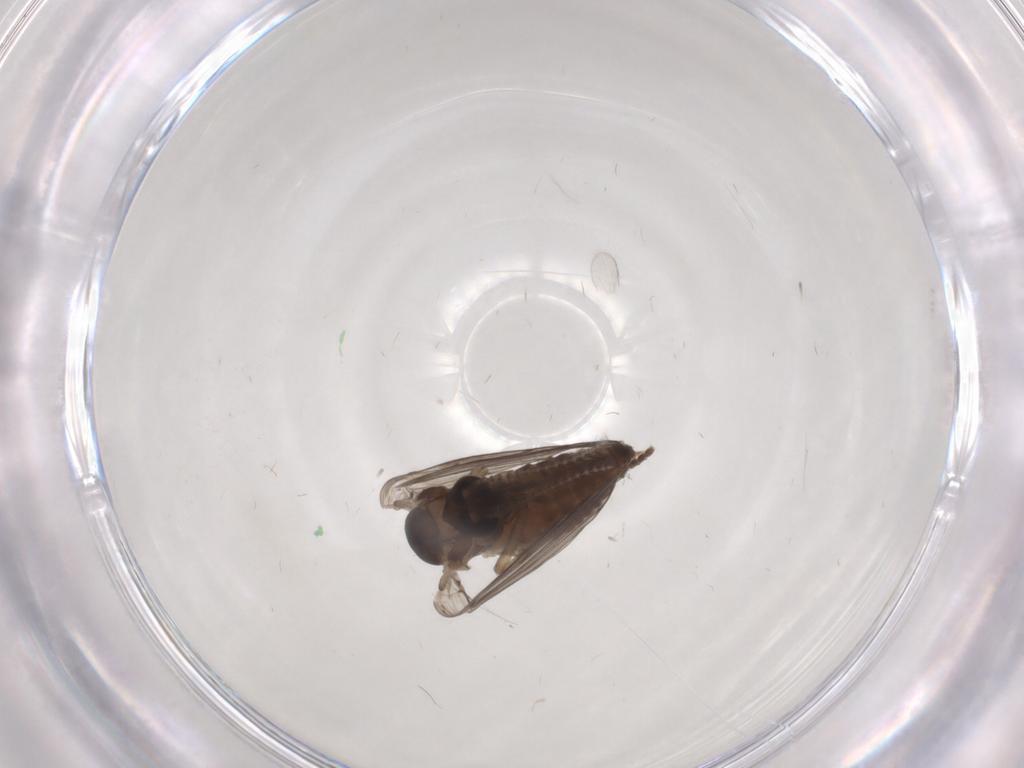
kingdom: Animalia
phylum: Arthropoda
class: Insecta
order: Diptera
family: Psychodidae
